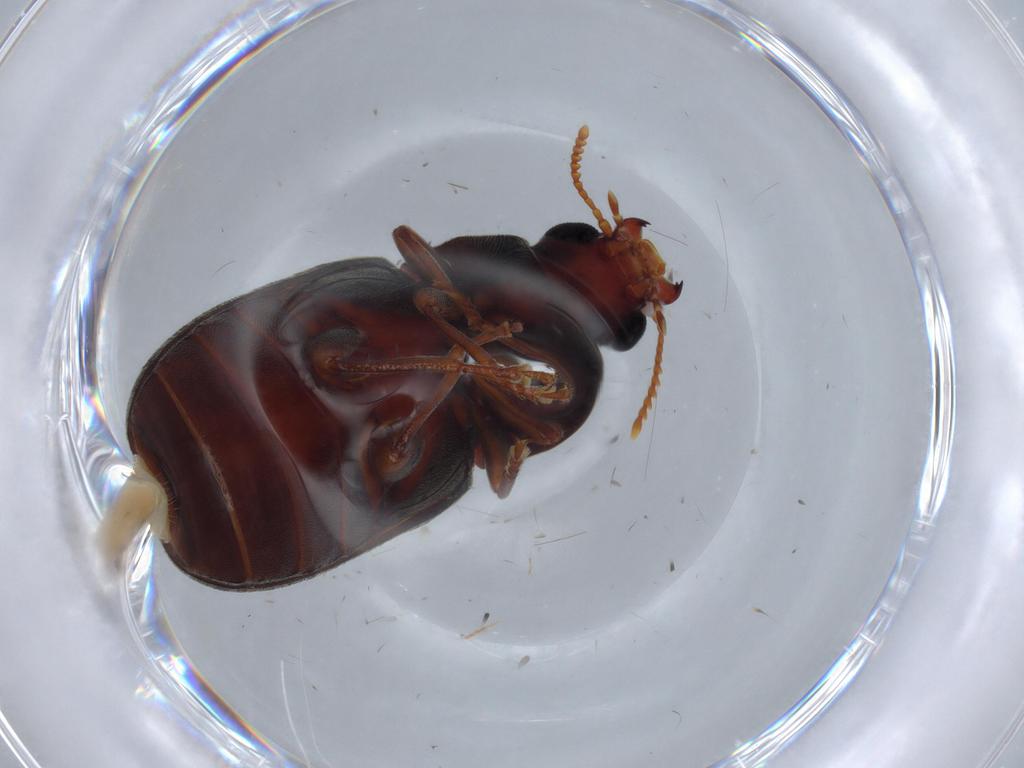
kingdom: Animalia
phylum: Arthropoda
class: Insecta
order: Coleoptera
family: Mycteridae
